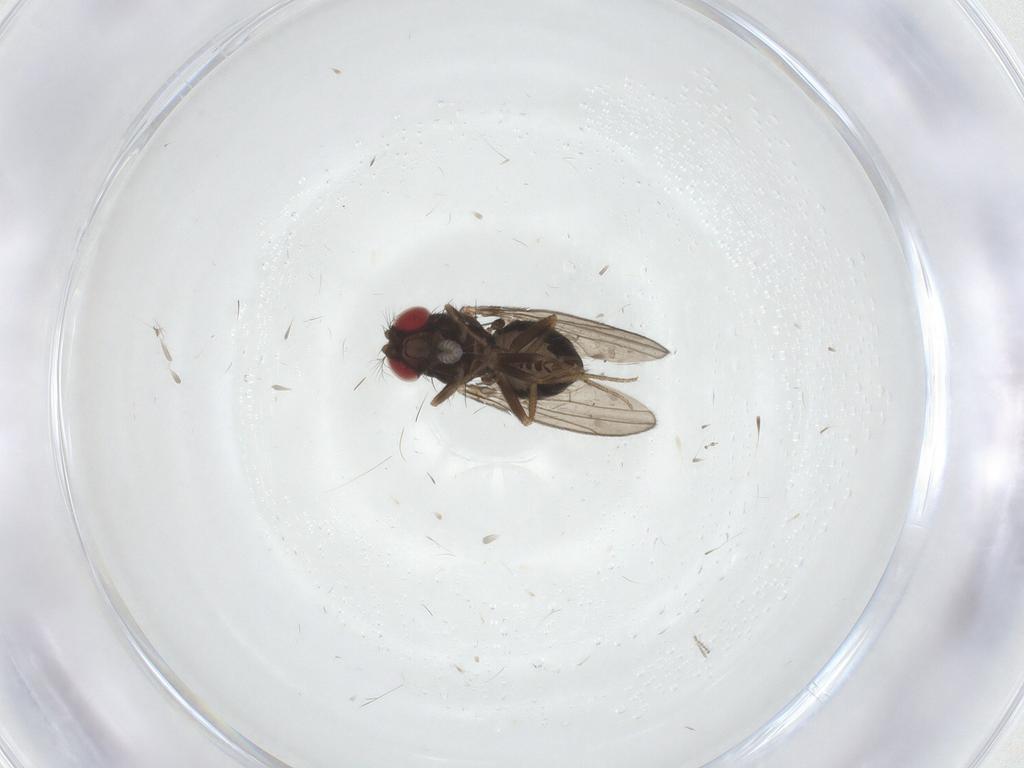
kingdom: Animalia
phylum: Arthropoda
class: Insecta
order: Diptera
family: Drosophilidae
